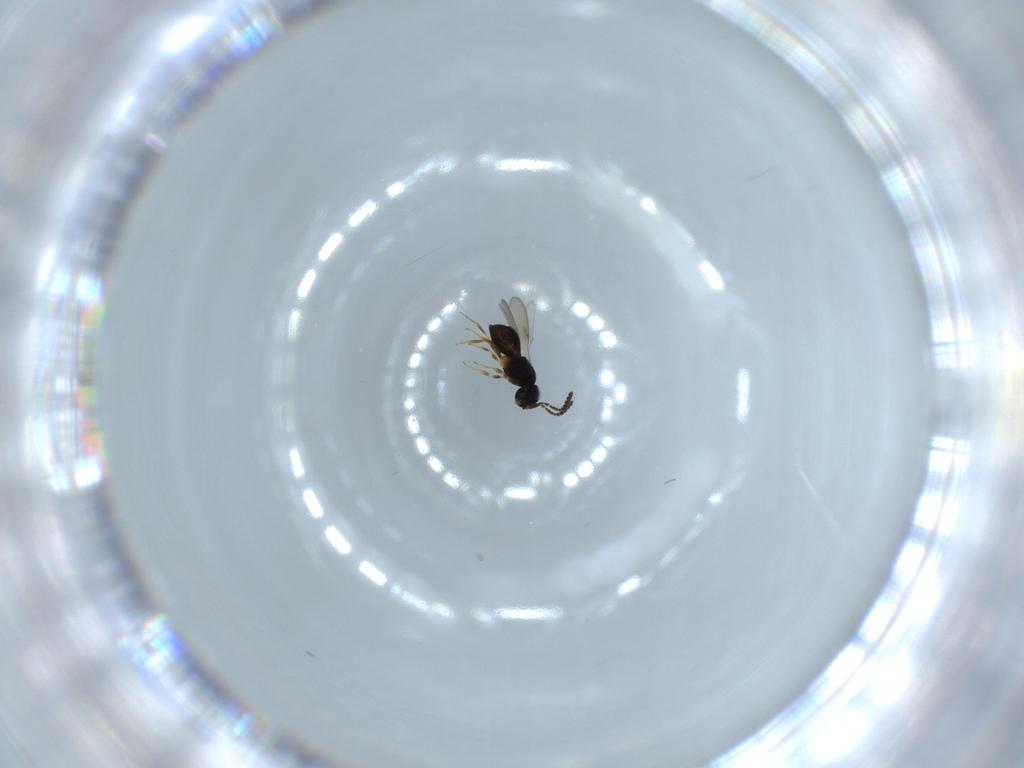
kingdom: Animalia
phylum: Arthropoda
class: Insecta
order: Hymenoptera
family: Scelionidae
